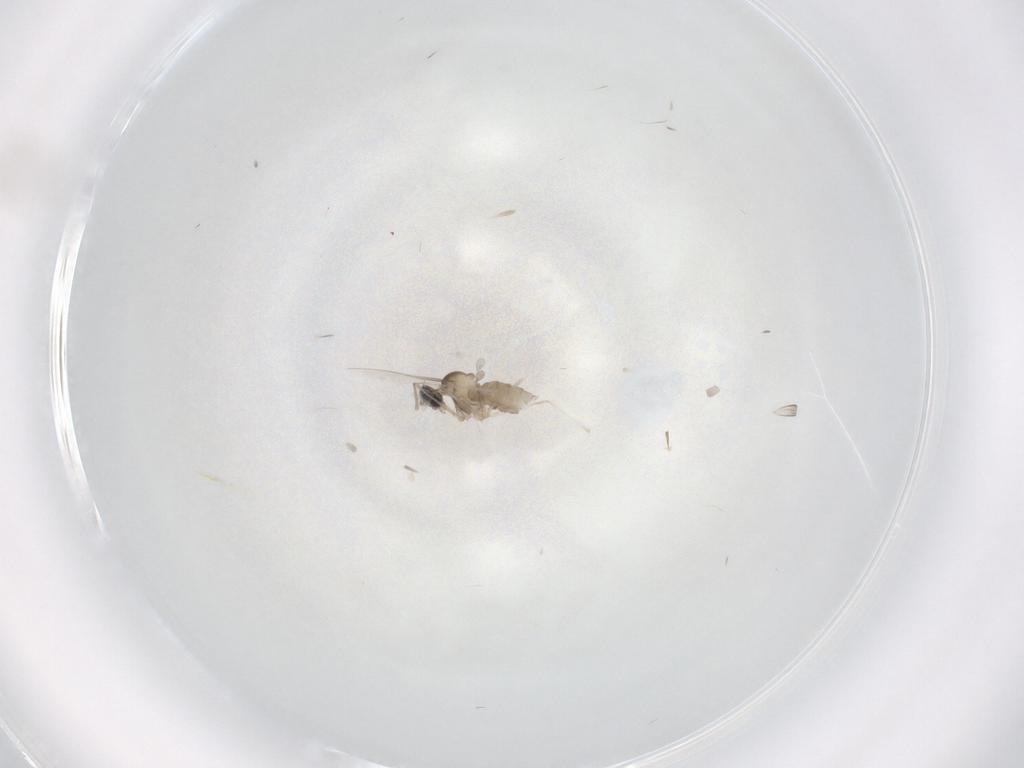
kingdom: Animalia
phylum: Arthropoda
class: Insecta
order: Diptera
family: Cecidomyiidae
